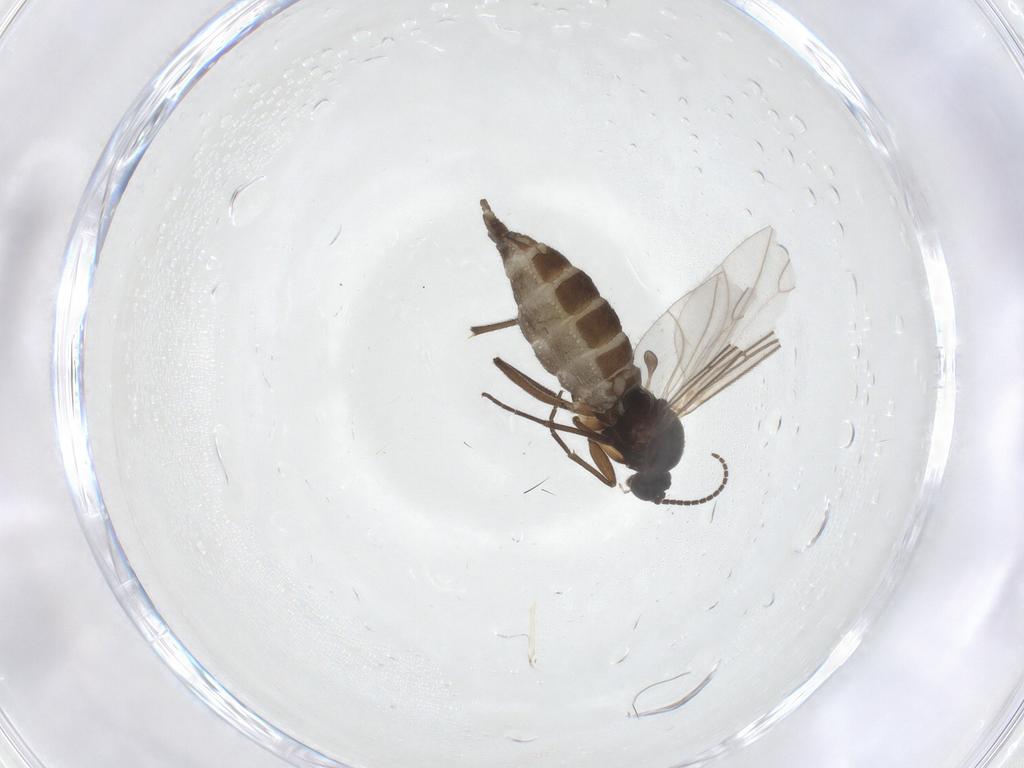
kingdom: Animalia
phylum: Arthropoda
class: Insecta
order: Diptera
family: Sciaridae
